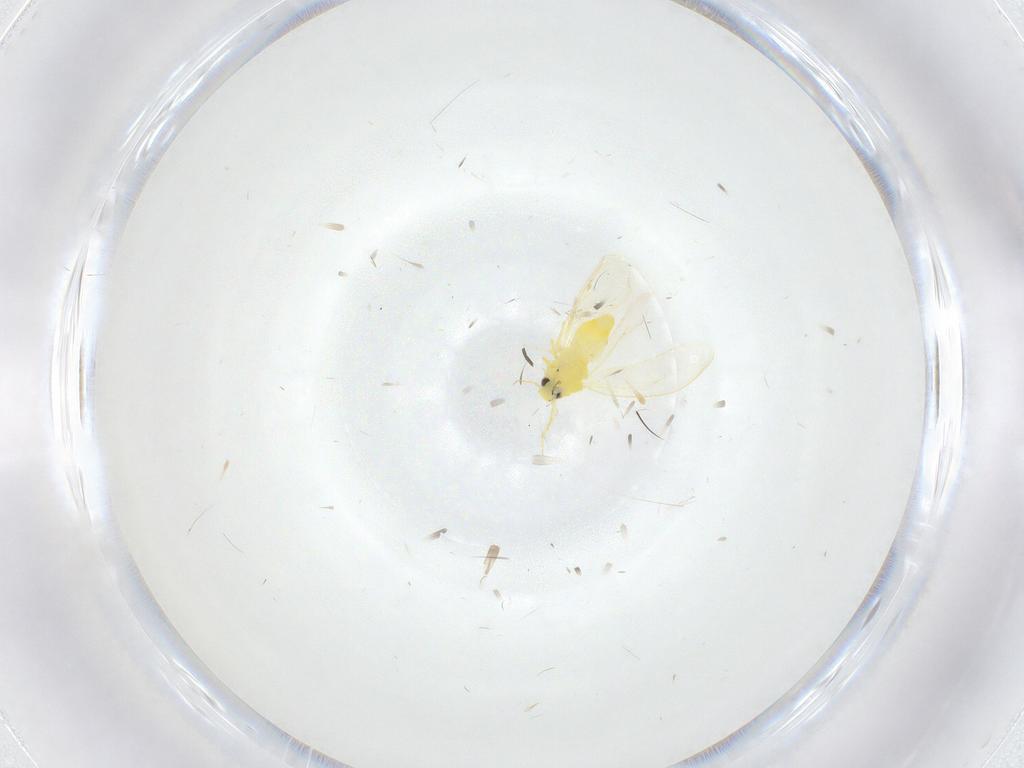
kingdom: Animalia
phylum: Arthropoda
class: Insecta
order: Hemiptera
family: Aleyrodidae
